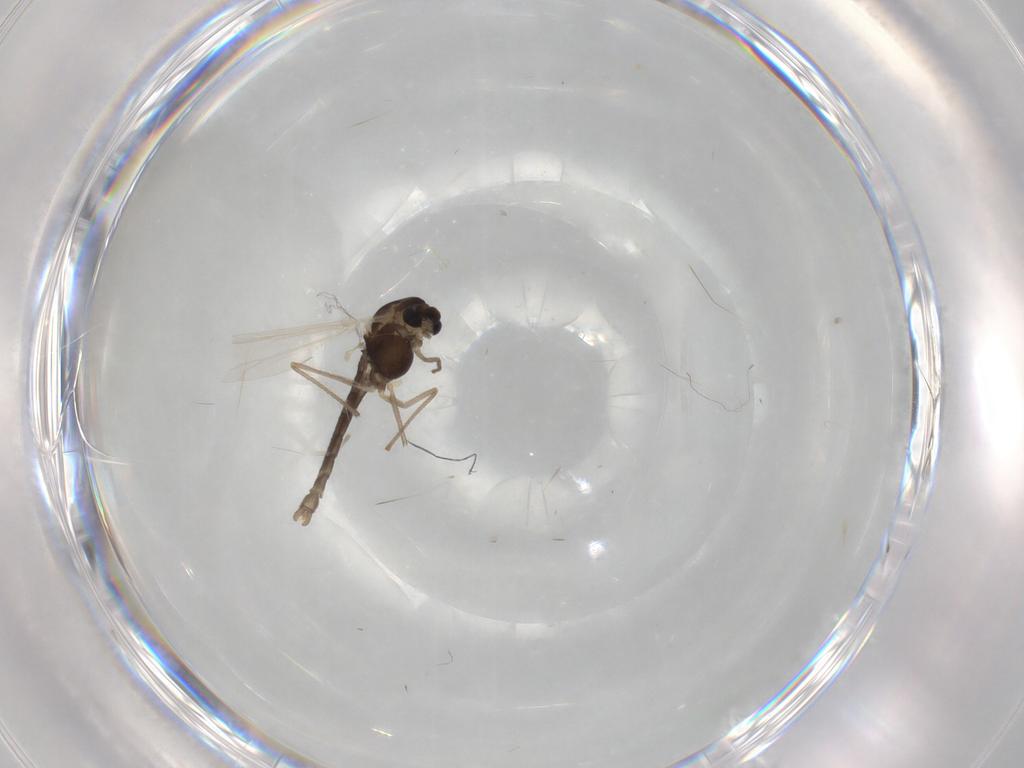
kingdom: Animalia
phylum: Arthropoda
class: Insecta
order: Diptera
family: Chironomidae
